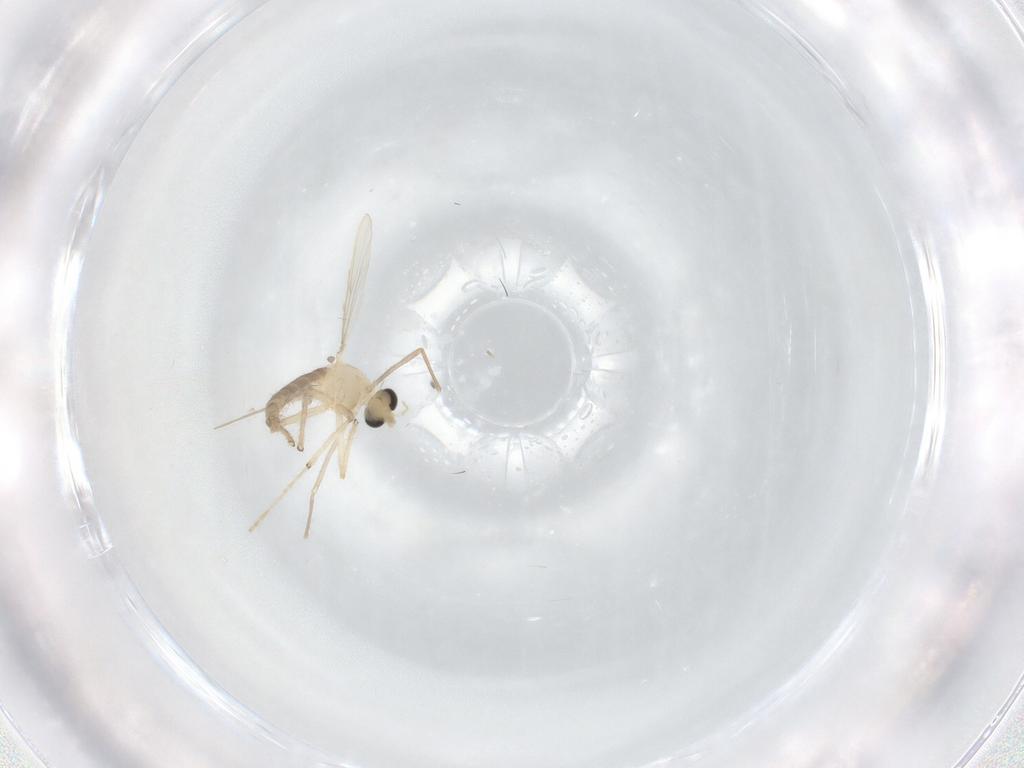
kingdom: Animalia
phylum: Arthropoda
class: Insecta
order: Diptera
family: Chironomidae
